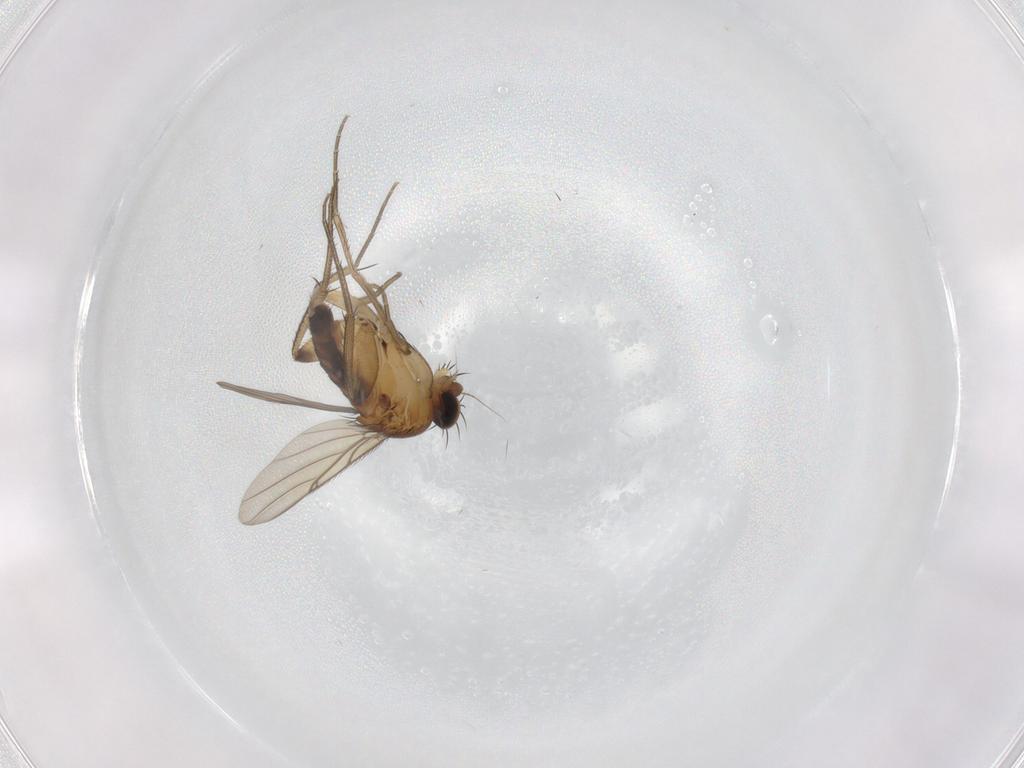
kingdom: Animalia
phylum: Arthropoda
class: Insecta
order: Diptera
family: Phoridae
